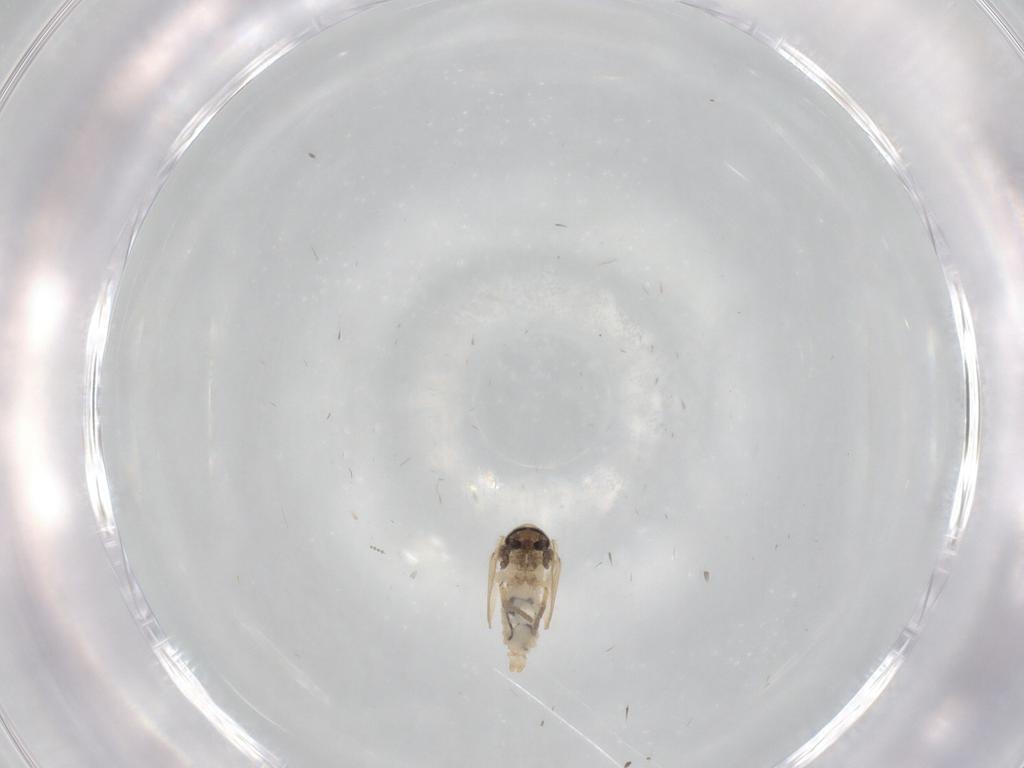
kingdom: Animalia
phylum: Arthropoda
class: Insecta
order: Diptera
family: Psychodidae
